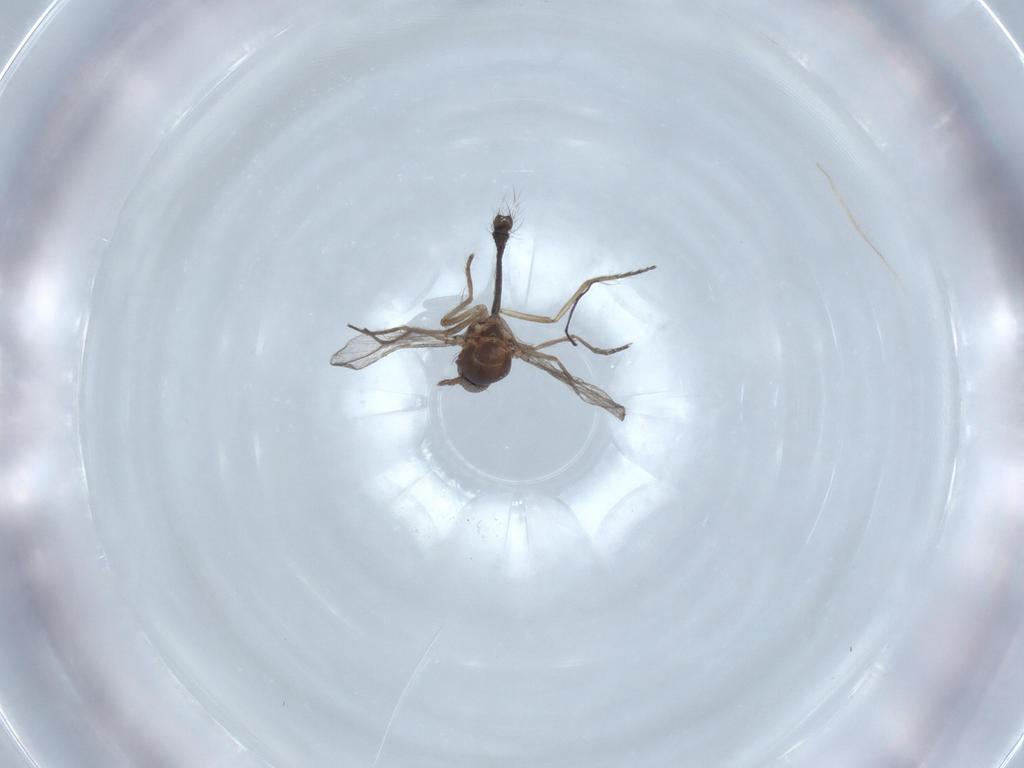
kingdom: Animalia
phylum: Arthropoda
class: Insecta
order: Diptera
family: Ceratopogonidae
